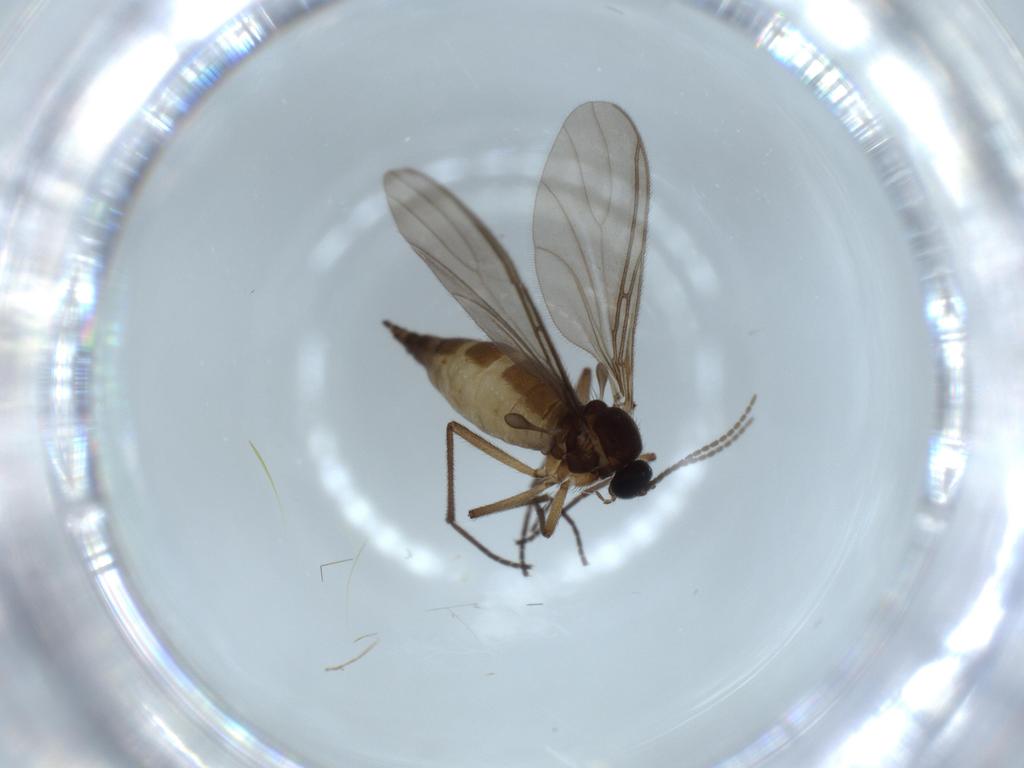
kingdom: Animalia
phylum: Arthropoda
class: Insecta
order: Diptera
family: Sciaridae
